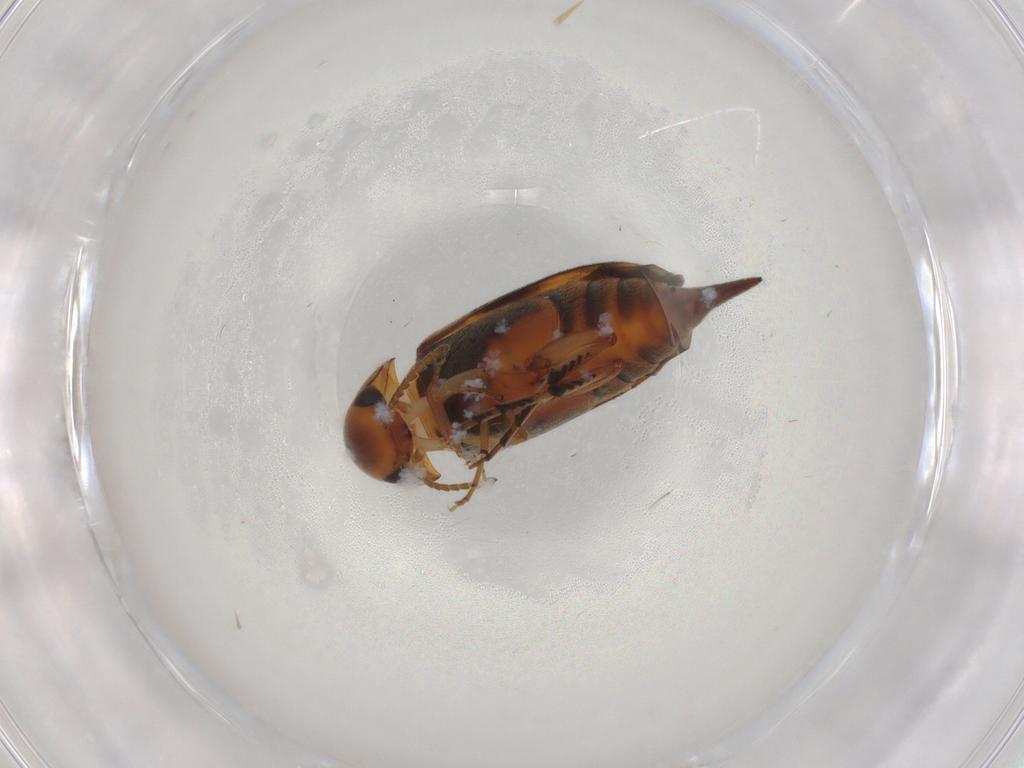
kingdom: Animalia
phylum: Arthropoda
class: Insecta
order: Coleoptera
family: Mordellidae
